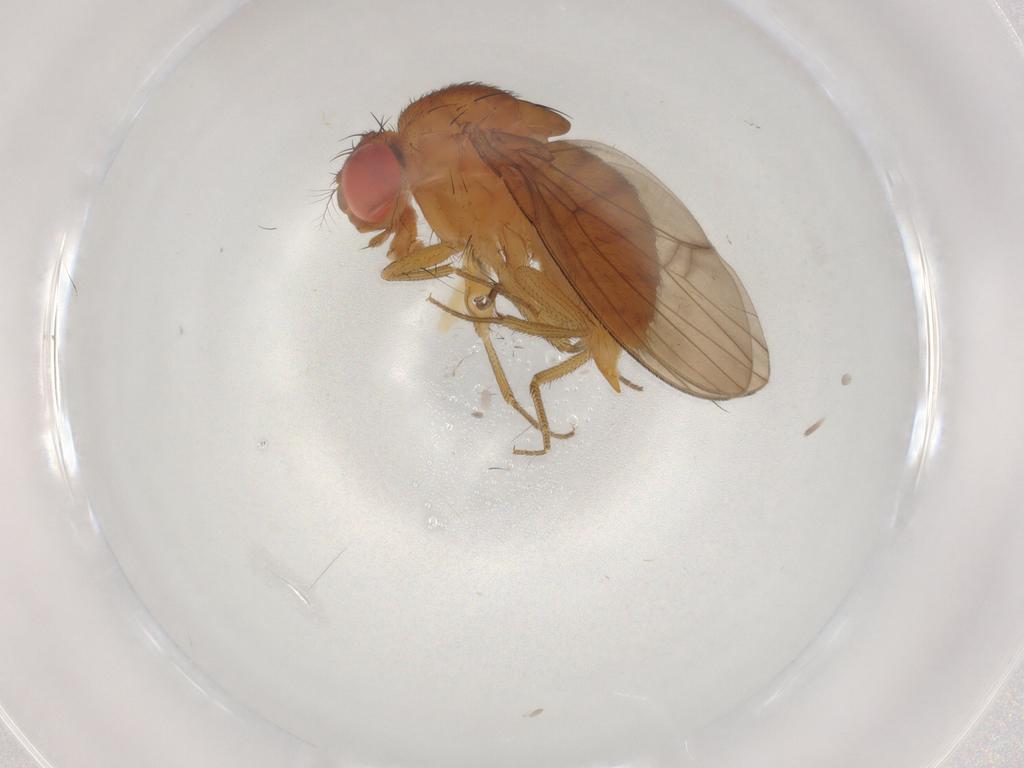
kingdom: Animalia
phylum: Arthropoda
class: Insecta
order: Diptera
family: Drosophilidae
